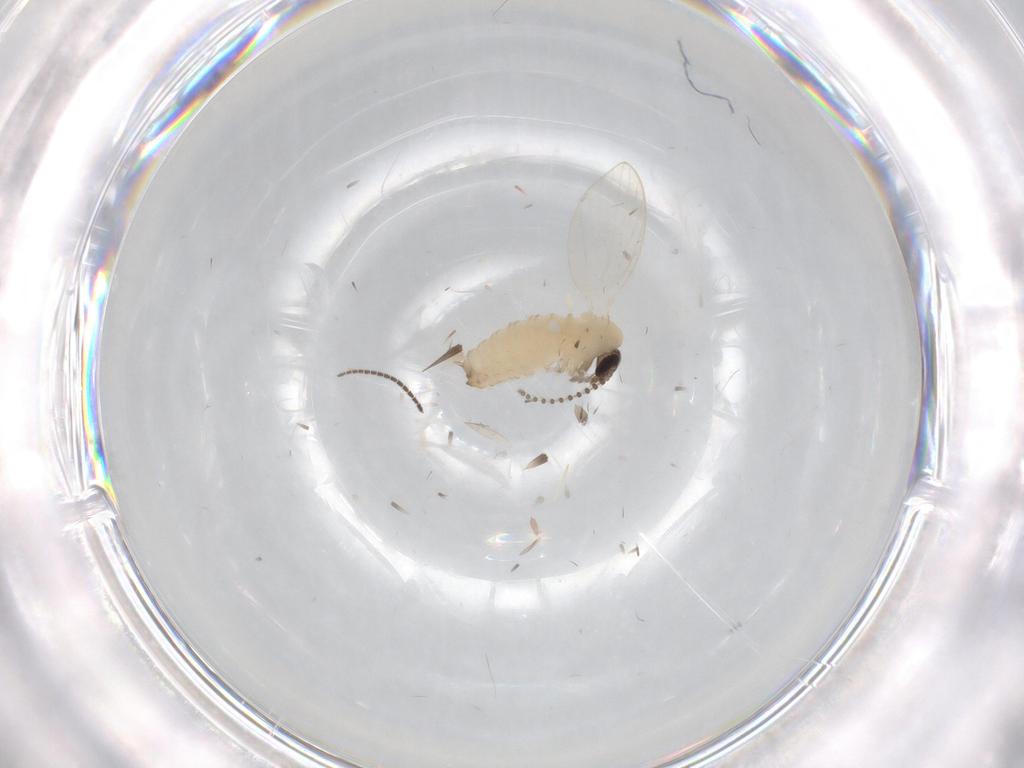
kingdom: Animalia
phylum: Arthropoda
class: Insecta
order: Diptera
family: Psychodidae
